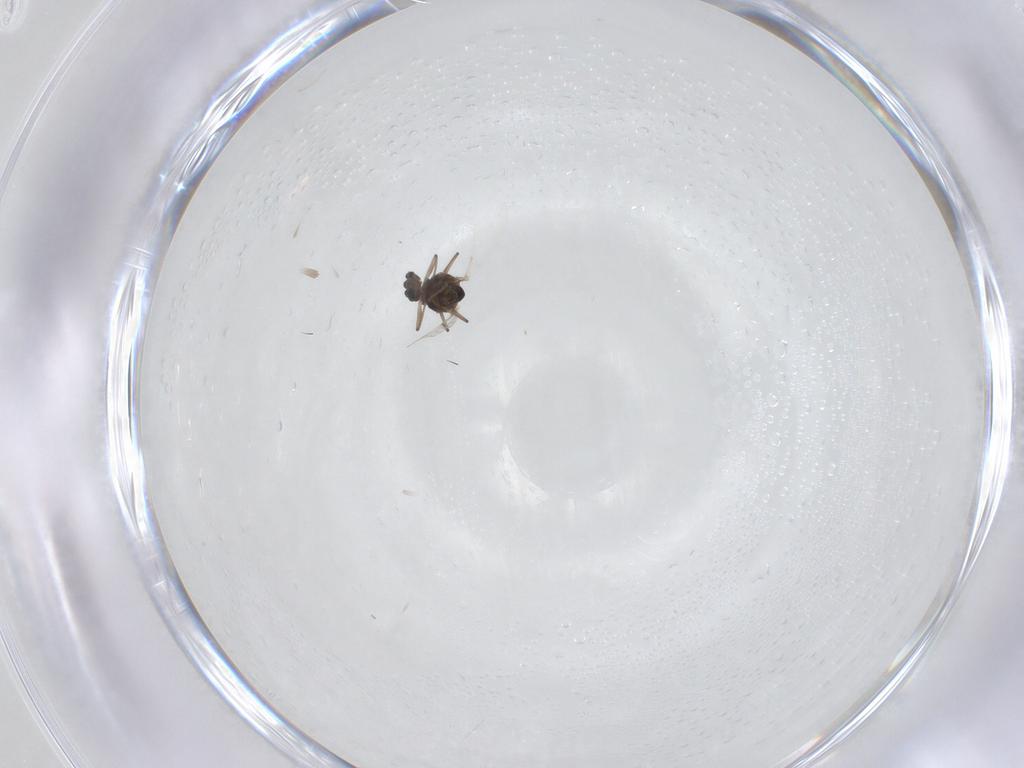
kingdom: Animalia
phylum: Arthropoda
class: Insecta
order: Diptera
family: Chironomidae
